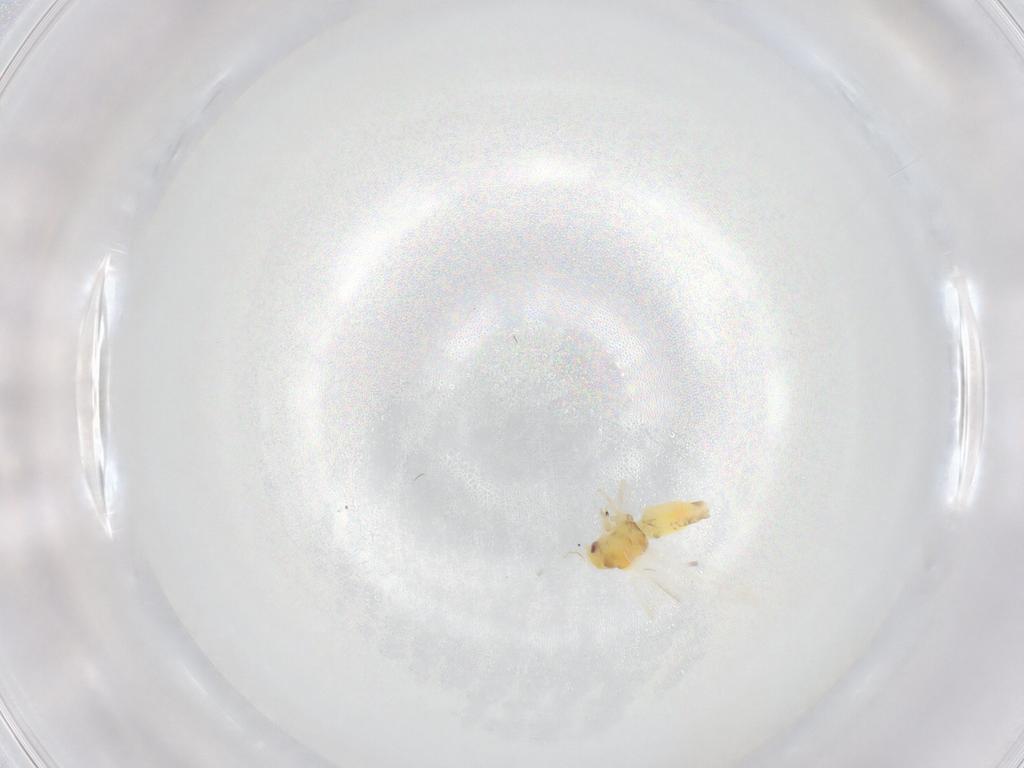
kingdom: Animalia
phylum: Arthropoda
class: Insecta
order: Hemiptera
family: Aleyrodidae
